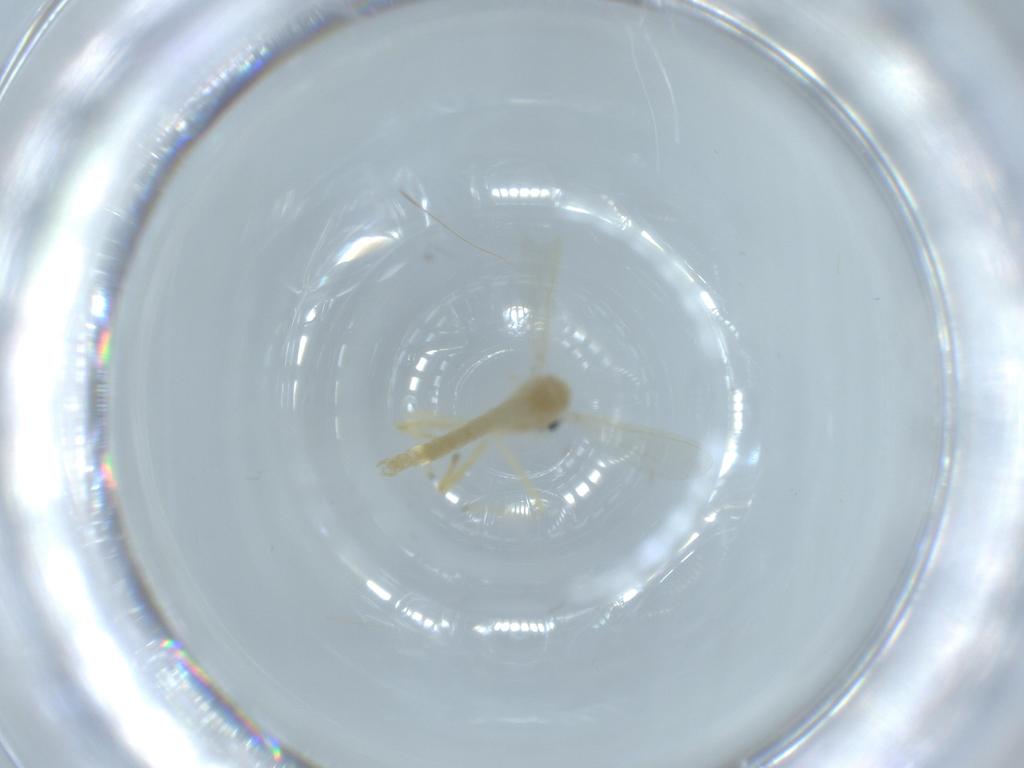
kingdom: Animalia
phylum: Arthropoda
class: Insecta
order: Diptera
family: Chironomidae
